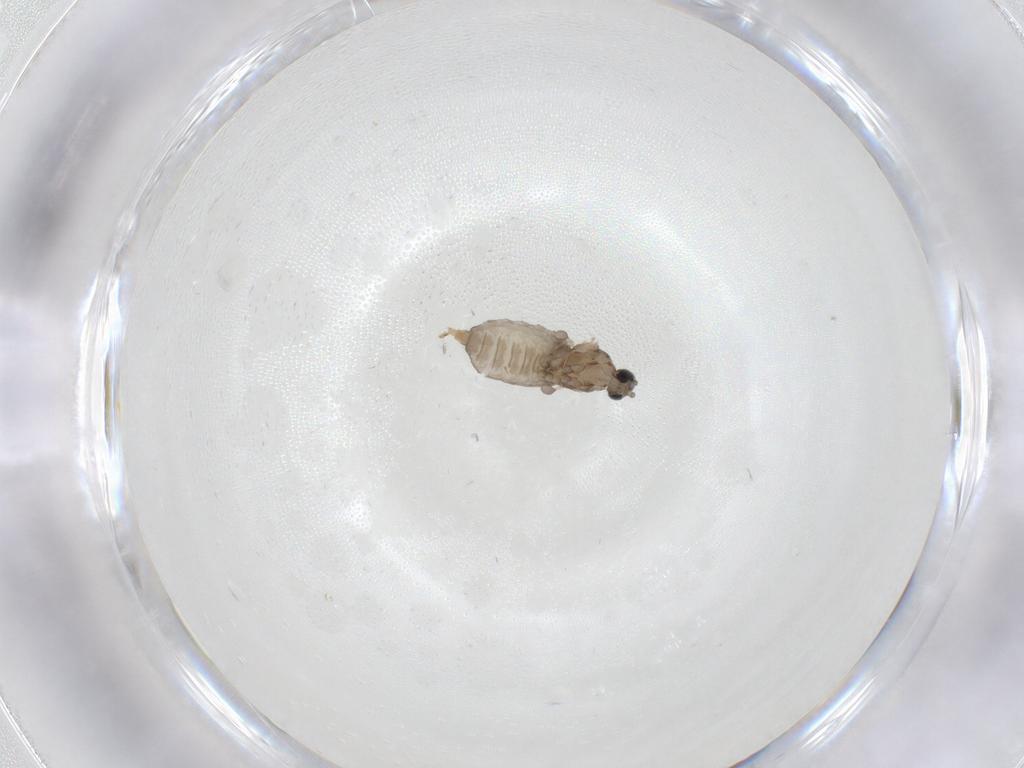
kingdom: Animalia
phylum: Arthropoda
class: Insecta
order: Diptera
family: Cecidomyiidae
